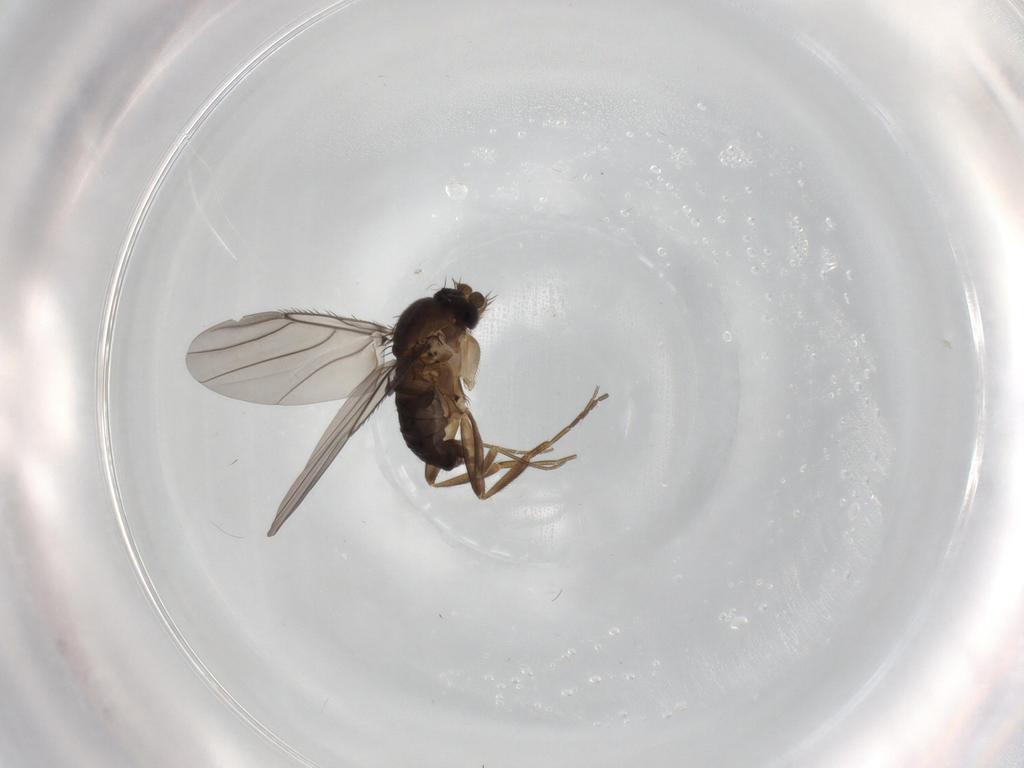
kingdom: Animalia
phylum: Arthropoda
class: Insecta
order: Diptera
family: Phoridae
